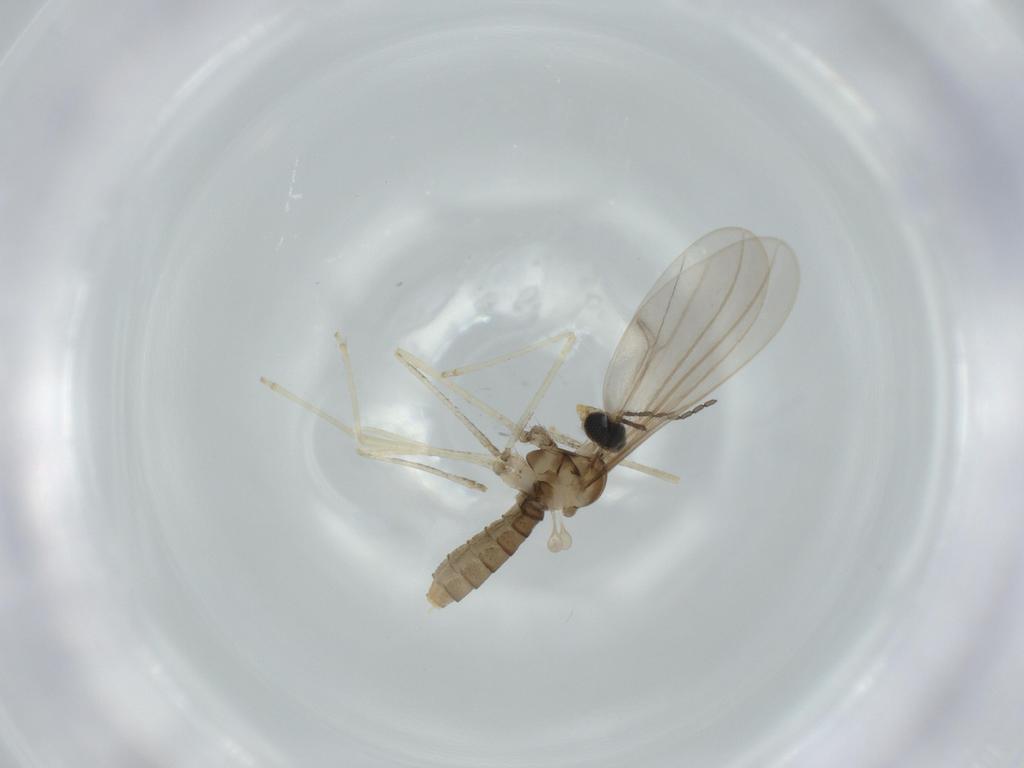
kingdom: Animalia
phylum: Arthropoda
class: Insecta
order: Diptera
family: Cecidomyiidae
